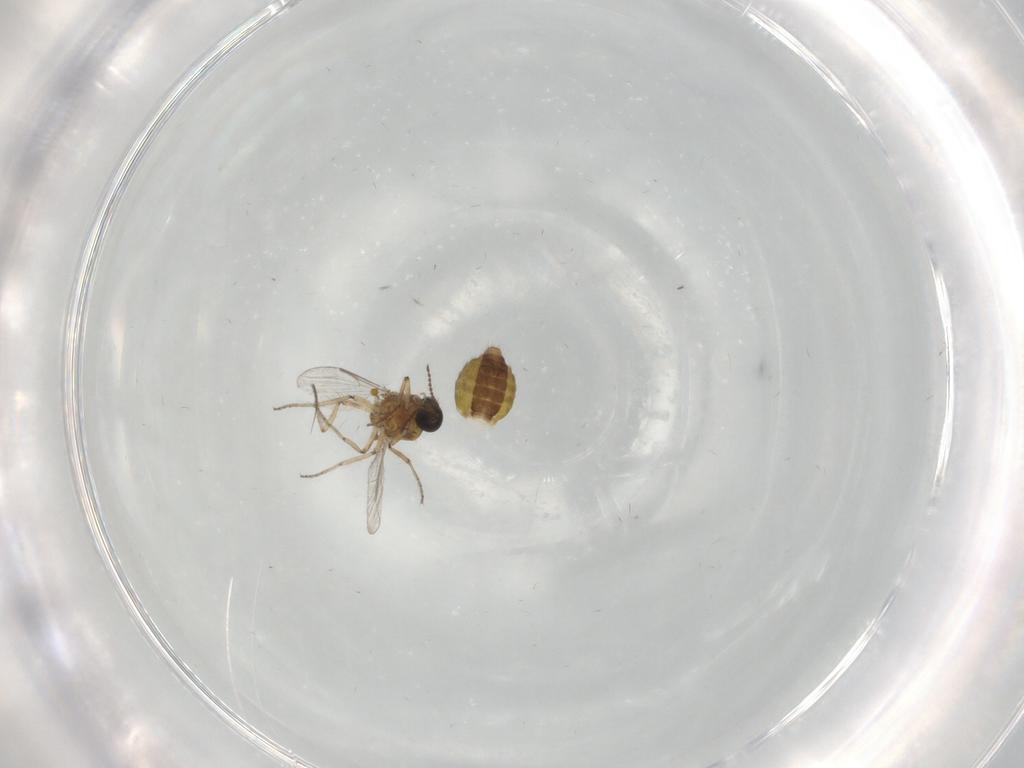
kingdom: Animalia
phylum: Arthropoda
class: Insecta
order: Diptera
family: Ceratopogonidae
